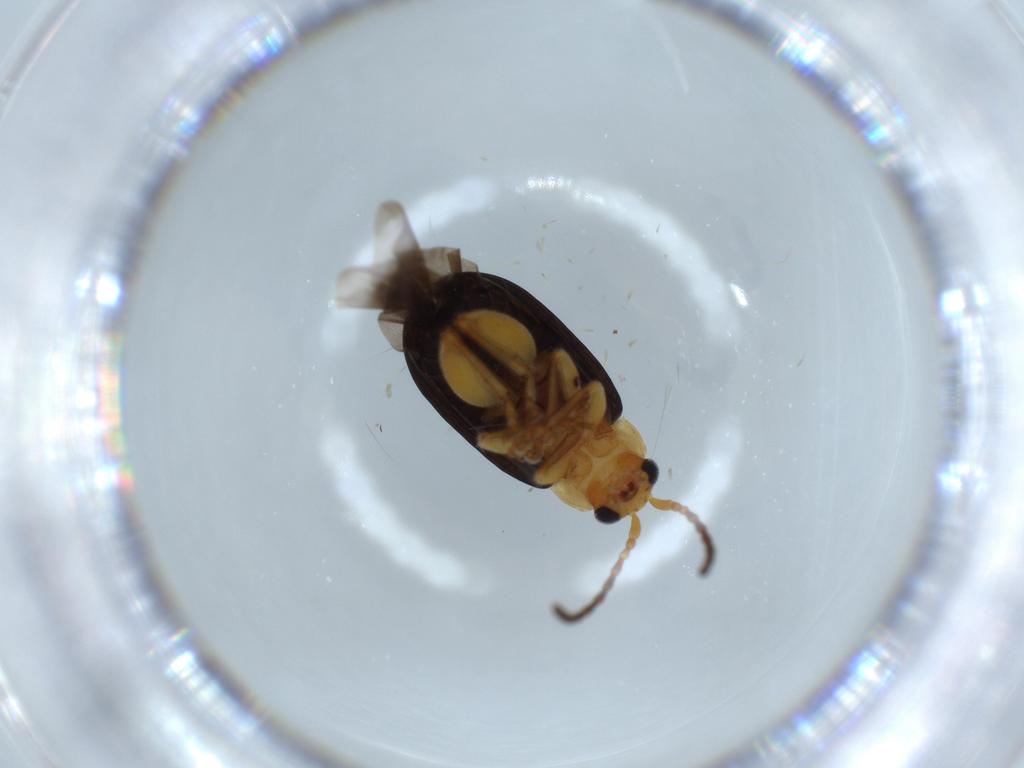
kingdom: Animalia
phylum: Arthropoda
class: Insecta
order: Coleoptera
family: Chrysomelidae
